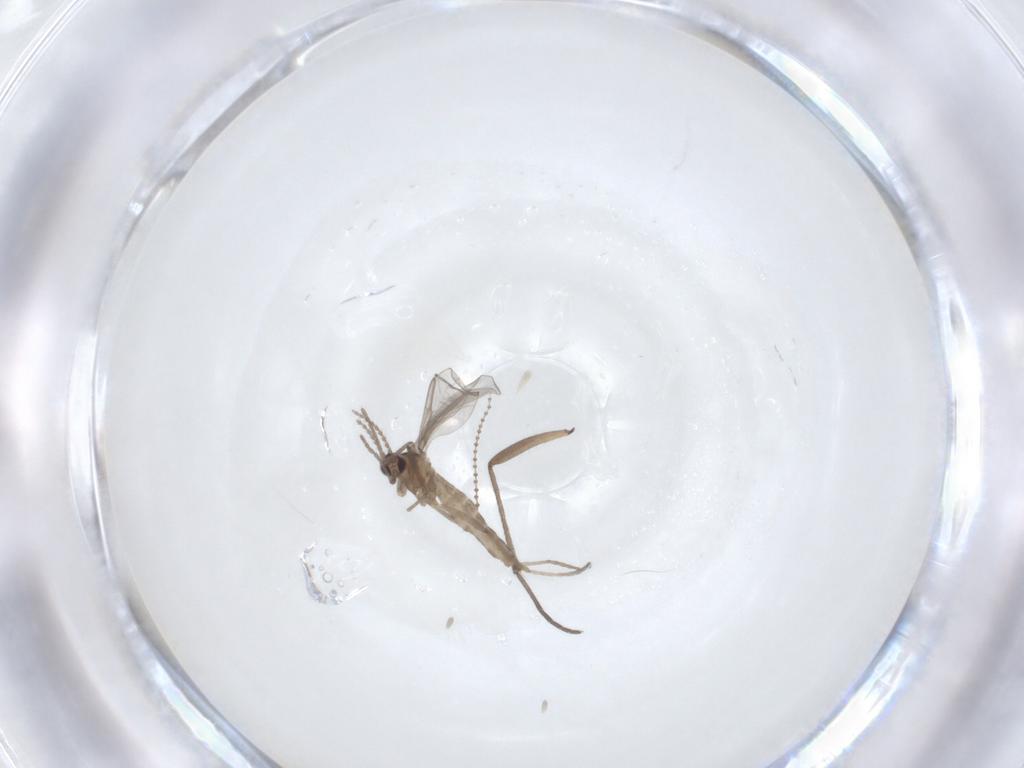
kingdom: Animalia
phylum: Arthropoda
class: Insecta
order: Diptera
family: Cecidomyiidae
